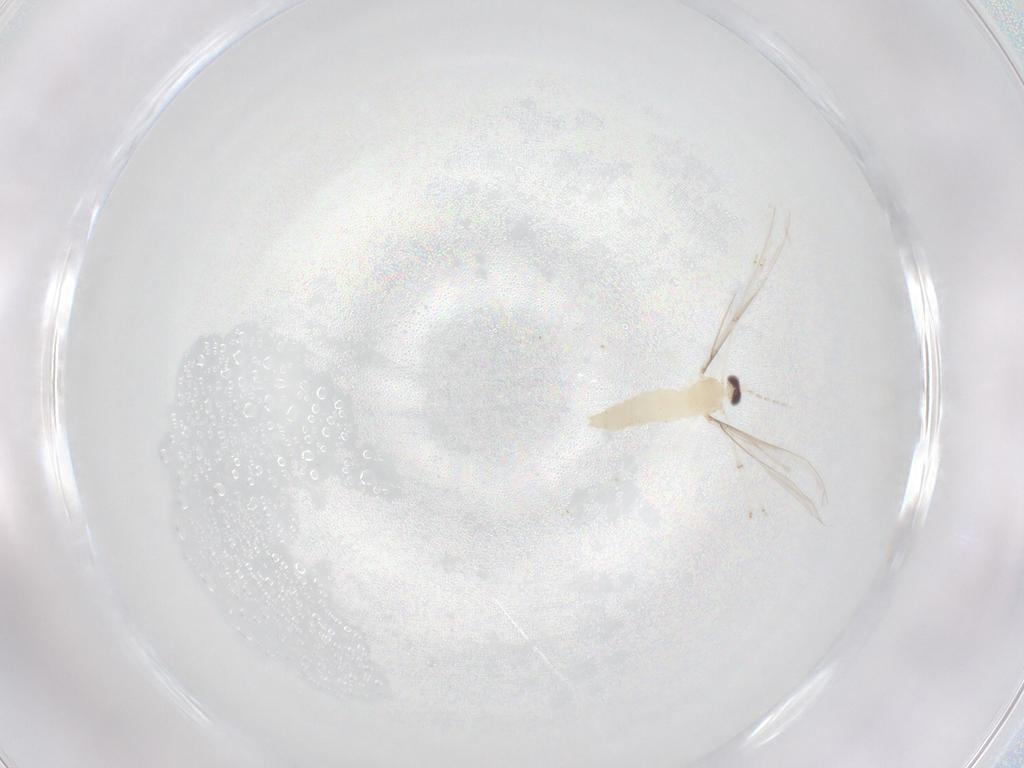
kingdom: Animalia
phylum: Arthropoda
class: Insecta
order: Diptera
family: Cecidomyiidae
